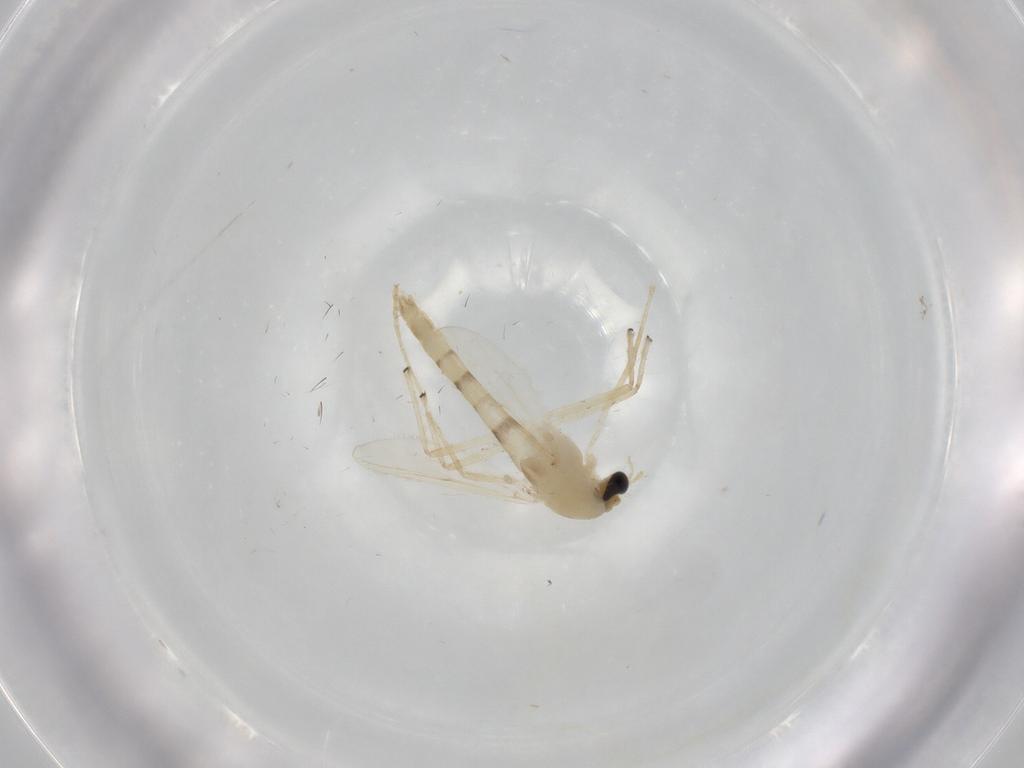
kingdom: Animalia
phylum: Arthropoda
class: Insecta
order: Diptera
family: Chironomidae
